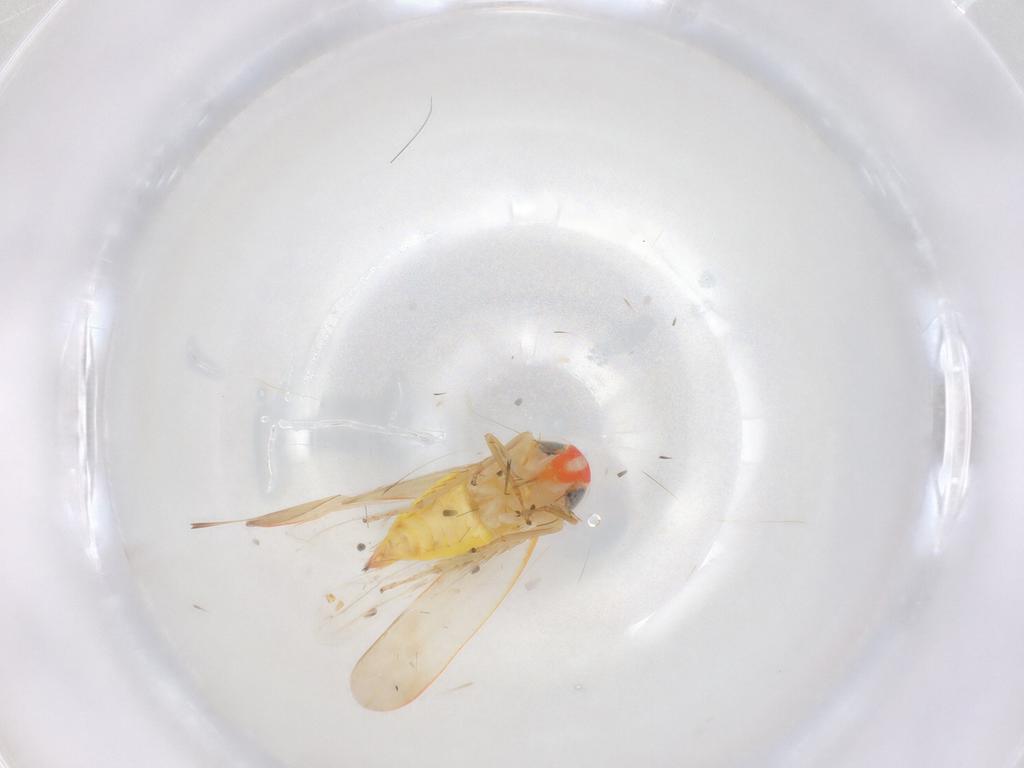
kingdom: Animalia
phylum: Arthropoda
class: Insecta
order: Hemiptera
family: Cicadellidae
